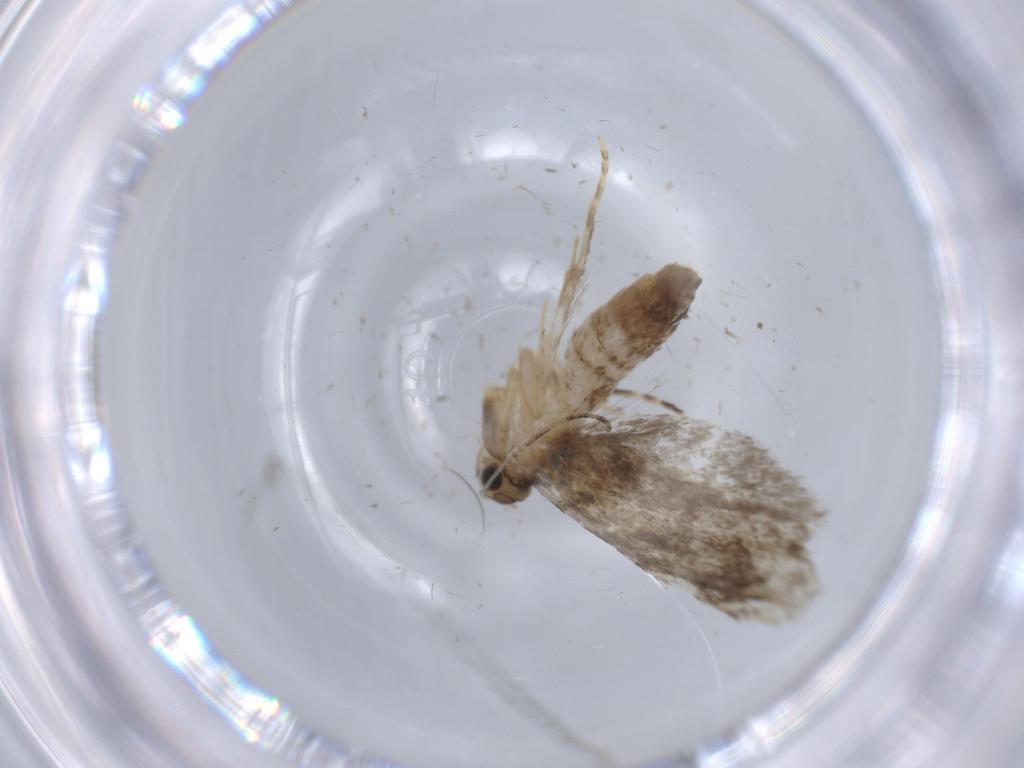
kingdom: Animalia
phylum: Arthropoda
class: Insecta
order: Lepidoptera
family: Tineidae
